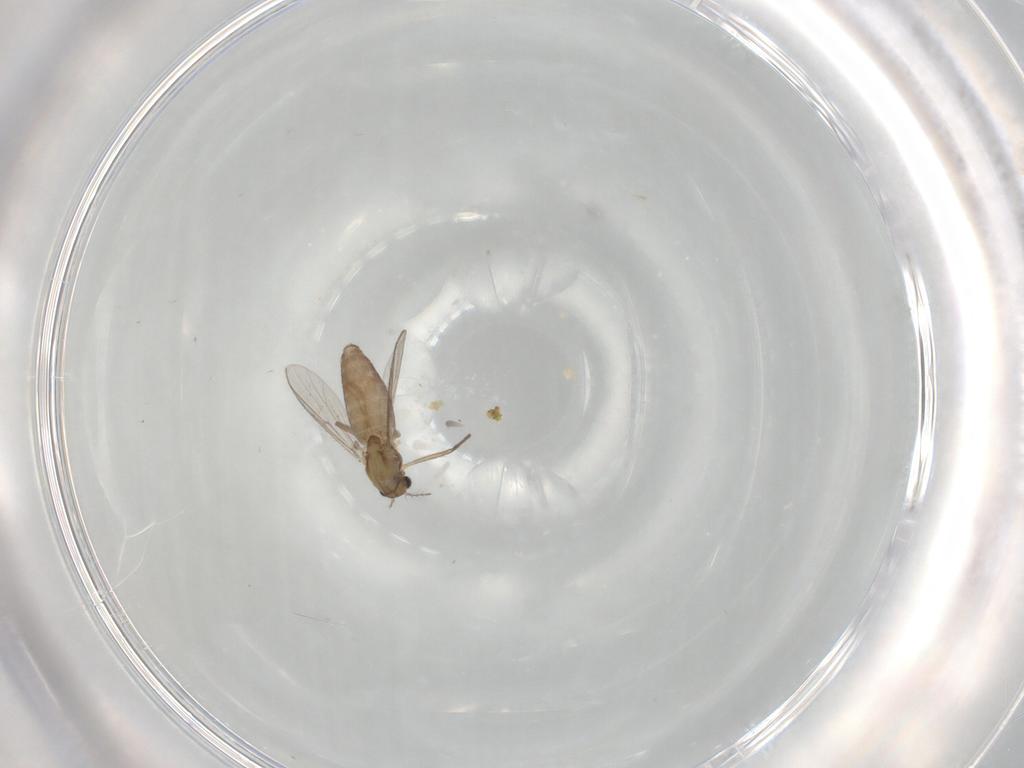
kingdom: Animalia
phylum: Arthropoda
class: Insecta
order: Diptera
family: Chironomidae
